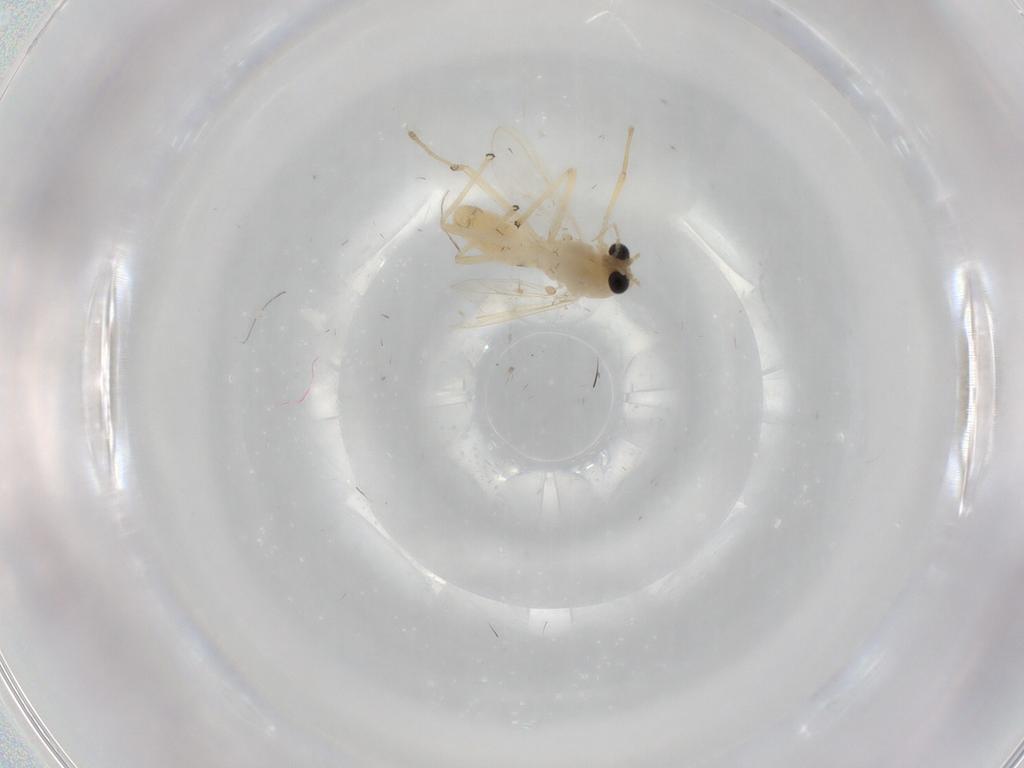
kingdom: Animalia
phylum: Arthropoda
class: Insecta
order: Diptera
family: Chironomidae
